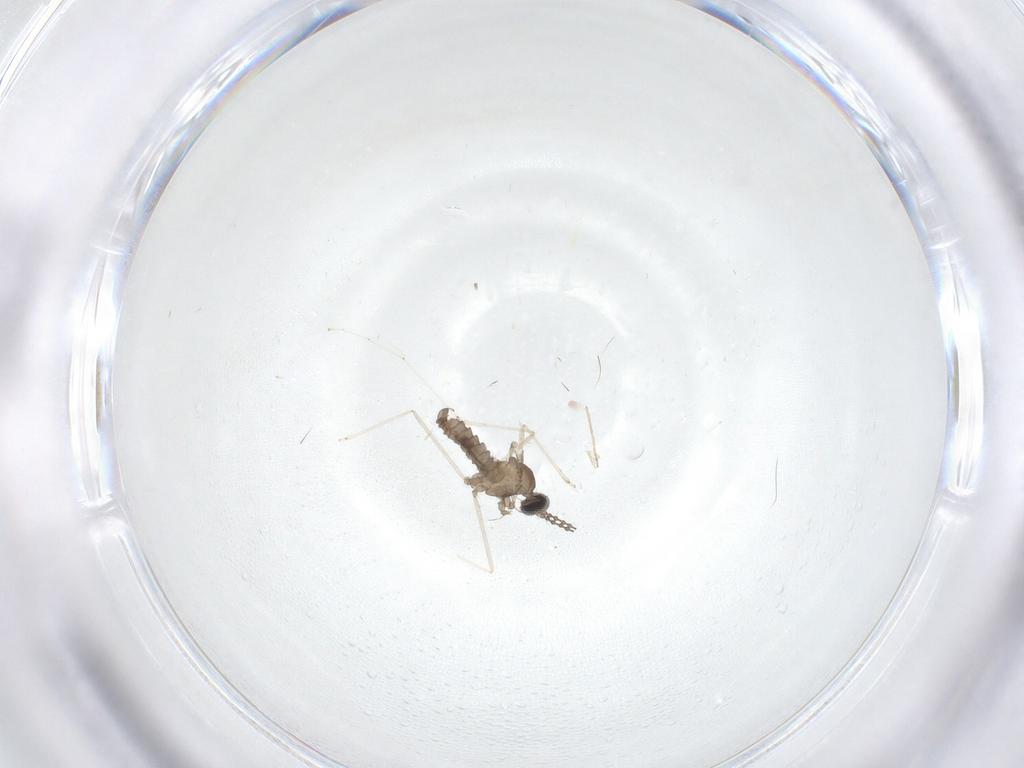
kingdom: Animalia
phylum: Arthropoda
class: Insecta
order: Diptera
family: Cecidomyiidae
